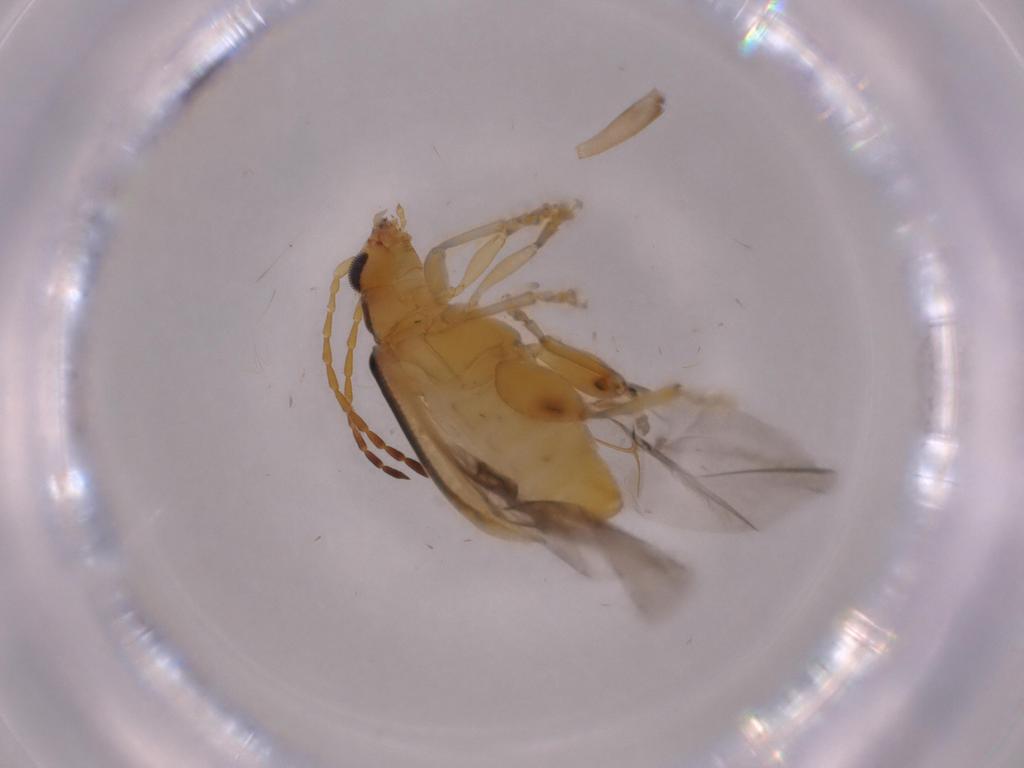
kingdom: Animalia
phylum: Arthropoda
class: Insecta
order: Coleoptera
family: Chrysomelidae
